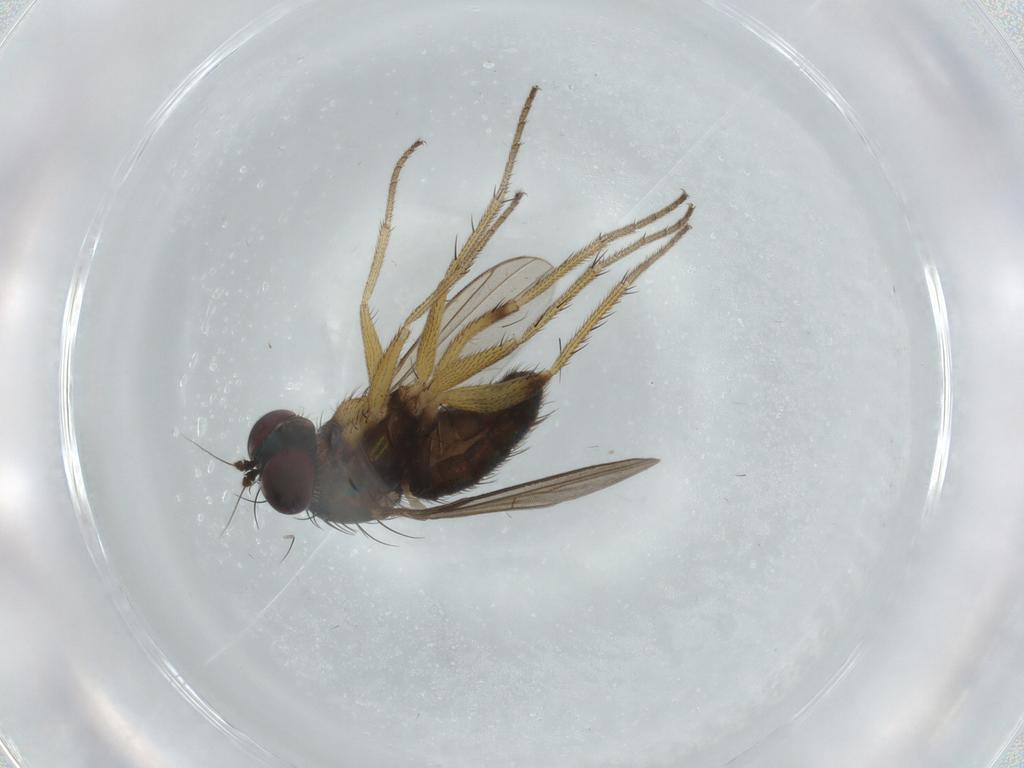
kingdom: Animalia
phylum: Arthropoda
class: Insecta
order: Diptera
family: Dolichopodidae
